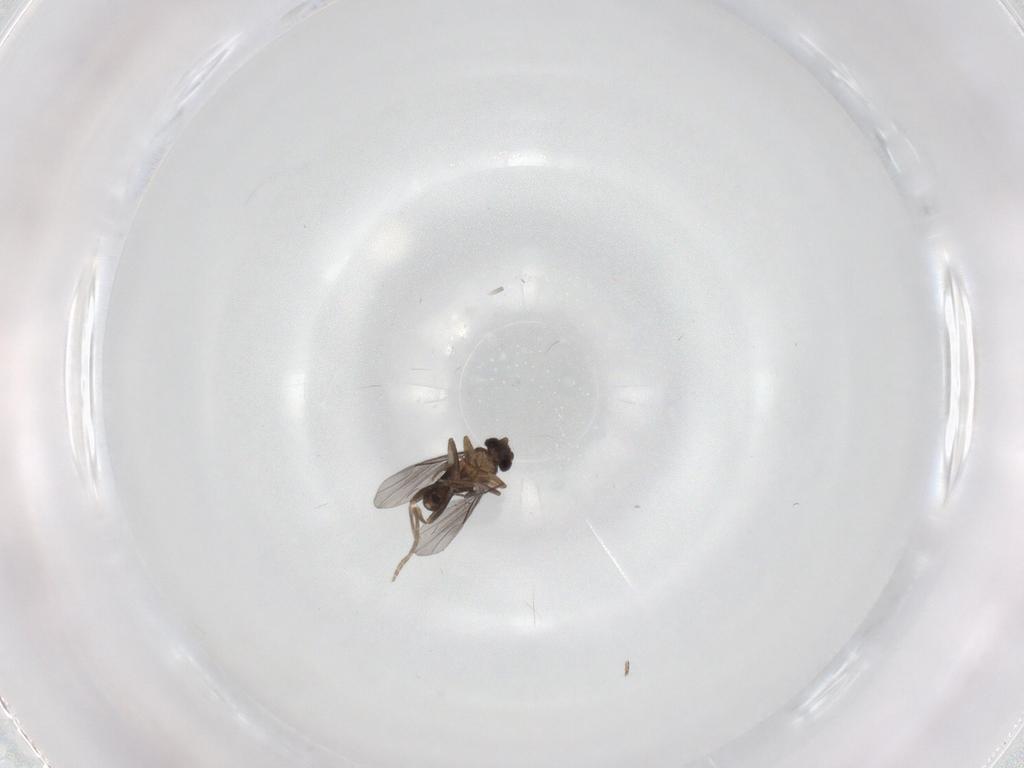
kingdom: Animalia
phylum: Arthropoda
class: Insecta
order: Diptera
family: Ceratopogonidae
